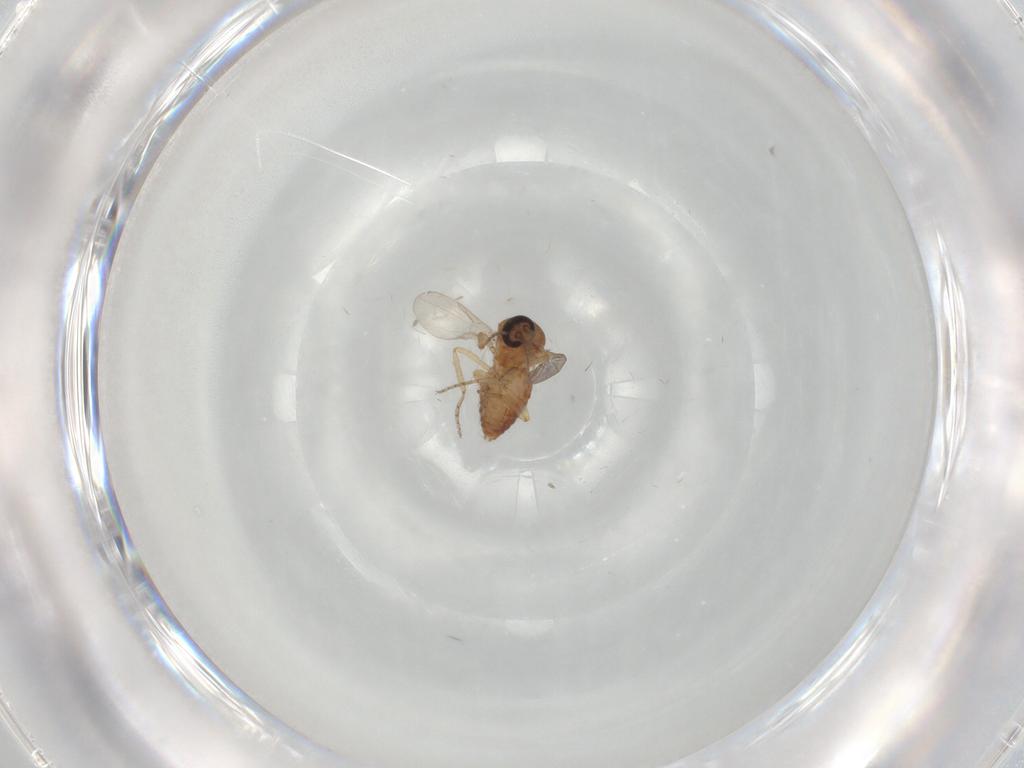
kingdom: Animalia
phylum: Arthropoda
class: Insecta
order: Diptera
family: Ceratopogonidae
